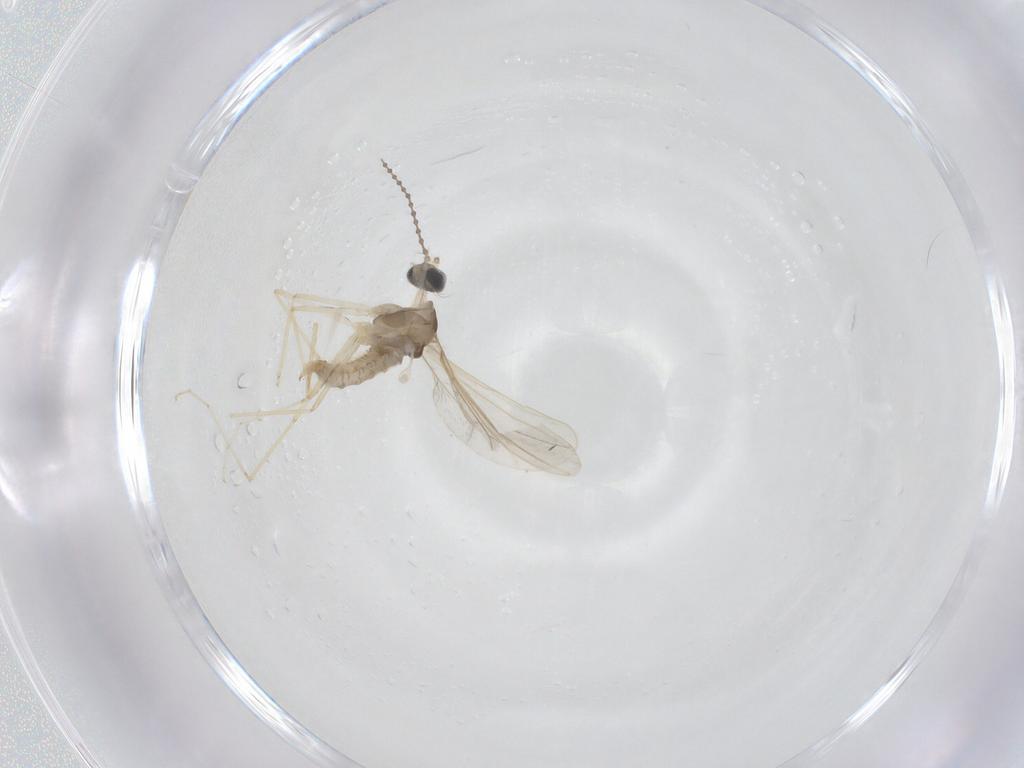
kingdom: Animalia
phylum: Arthropoda
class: Insecta
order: Diptera
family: Cecidomyiidae
